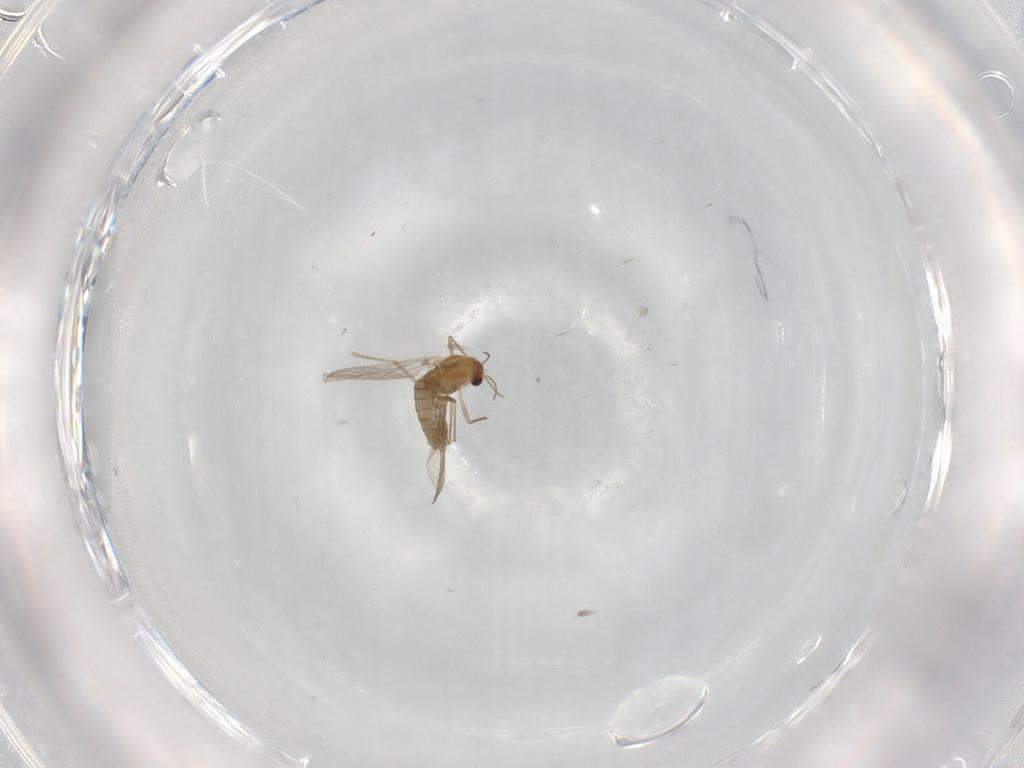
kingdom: Animalia
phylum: Arthropoda
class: Insecta
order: Diptera
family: Chironomidae
